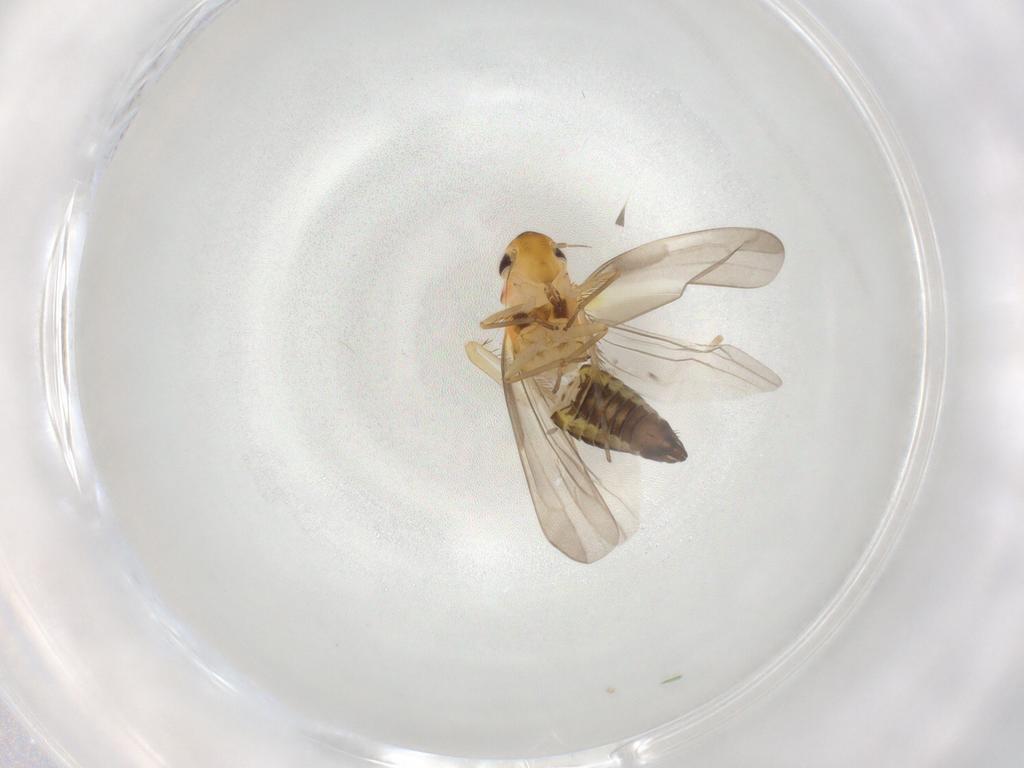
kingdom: Animalia
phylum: Arthropoda
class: Insecta
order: Hemiptera
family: Cicadellidae
